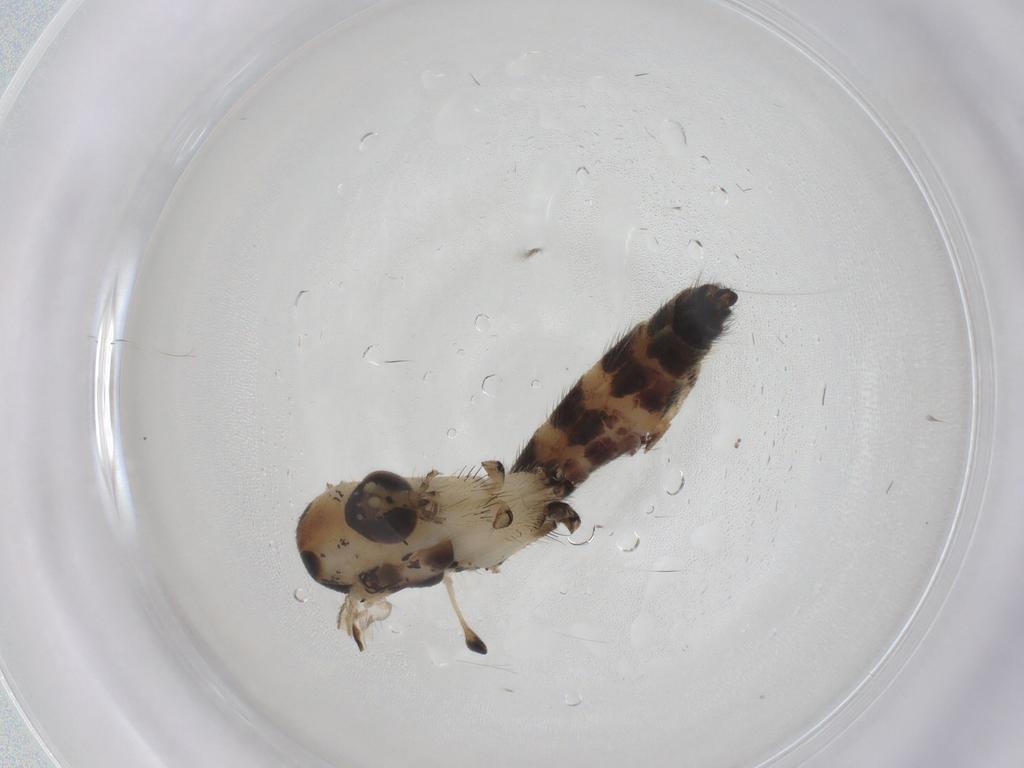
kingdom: Animalia
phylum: Arthropoda
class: Insecta
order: Diptera
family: Mycetophilidae
